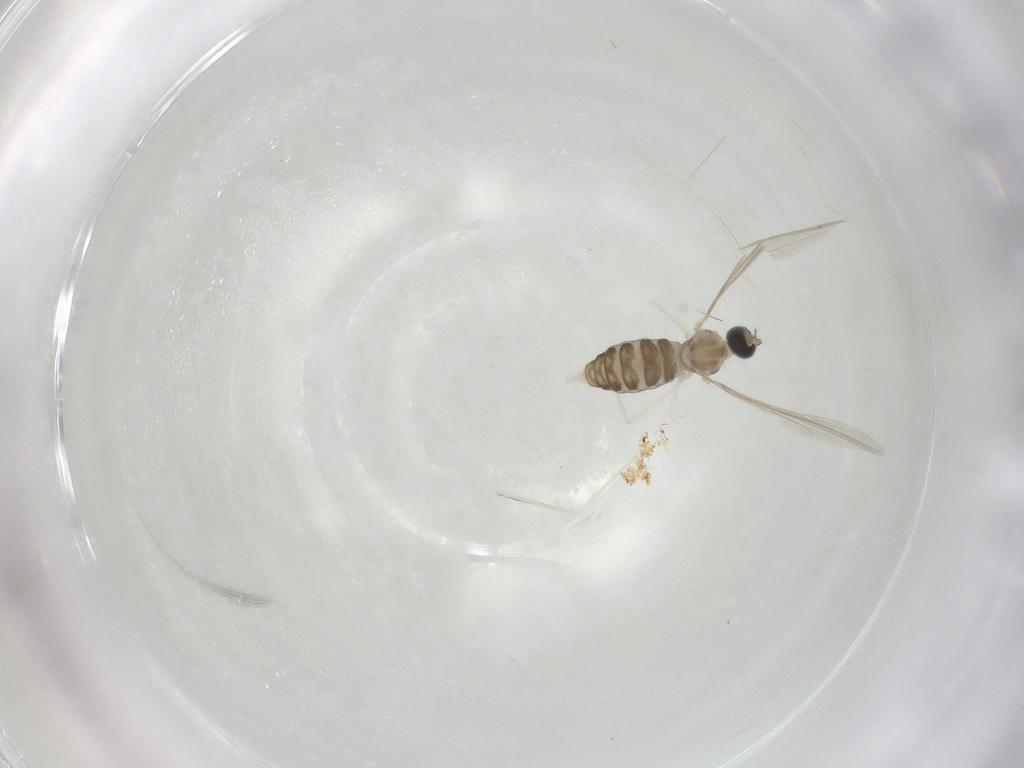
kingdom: Animalia
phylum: Arthropoda
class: Insecta
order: Diptera
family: Cecidomyiidae
